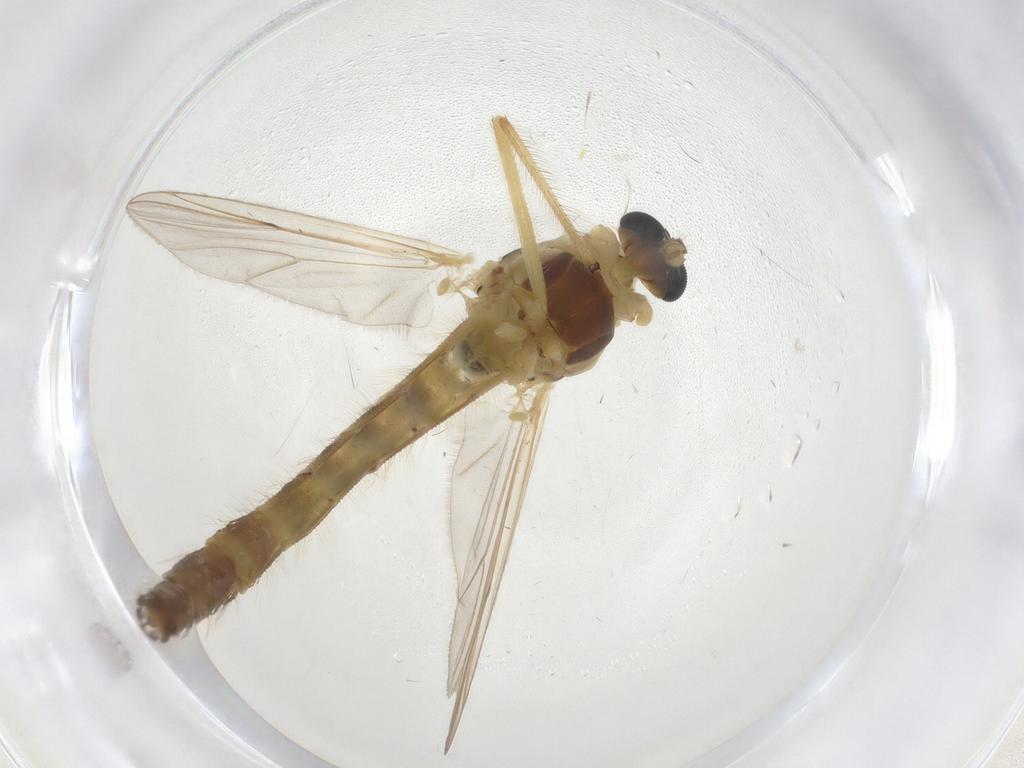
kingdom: Animalia
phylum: Arthropoda
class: Insecta
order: Diptera
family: Chironomidae
